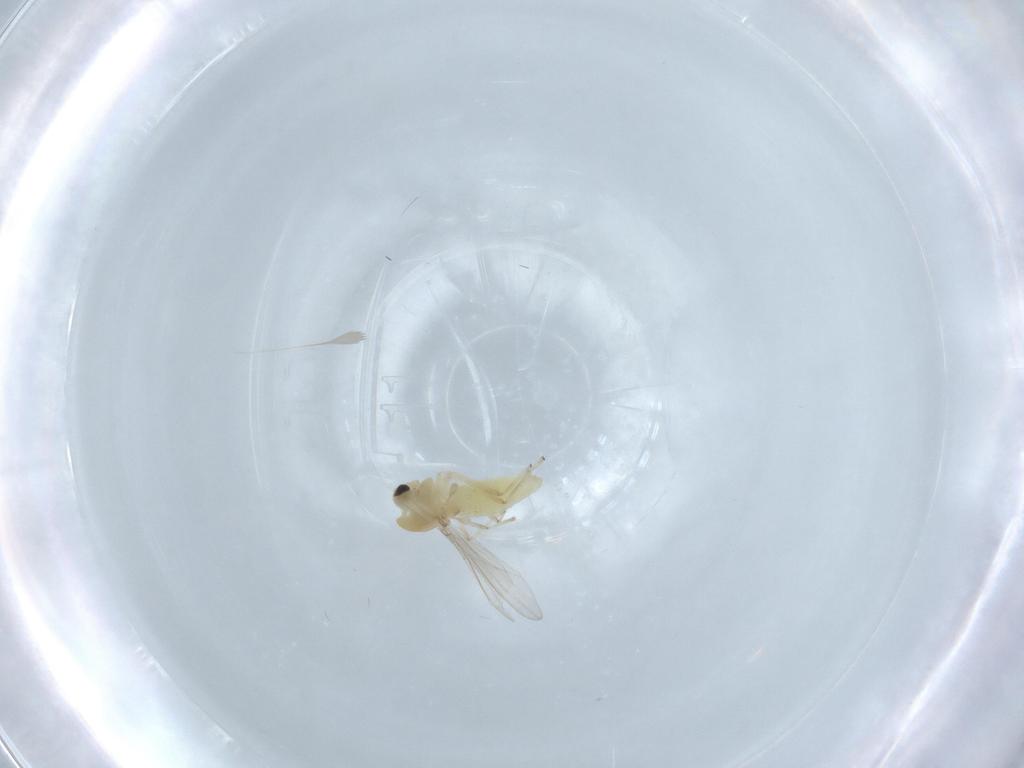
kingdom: Animalia
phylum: Arthropoda
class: Insecta
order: Diptera
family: Chironomidae
